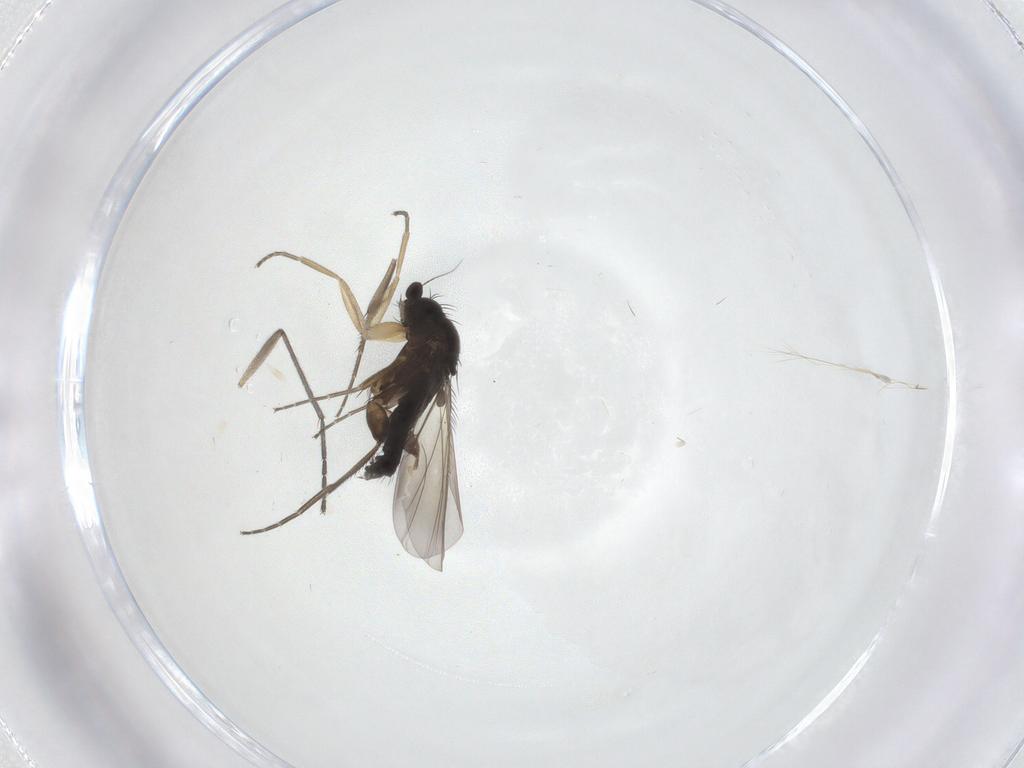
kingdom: Animalia
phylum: Arthropoda
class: Insecta
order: Diptera
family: Phoridae
